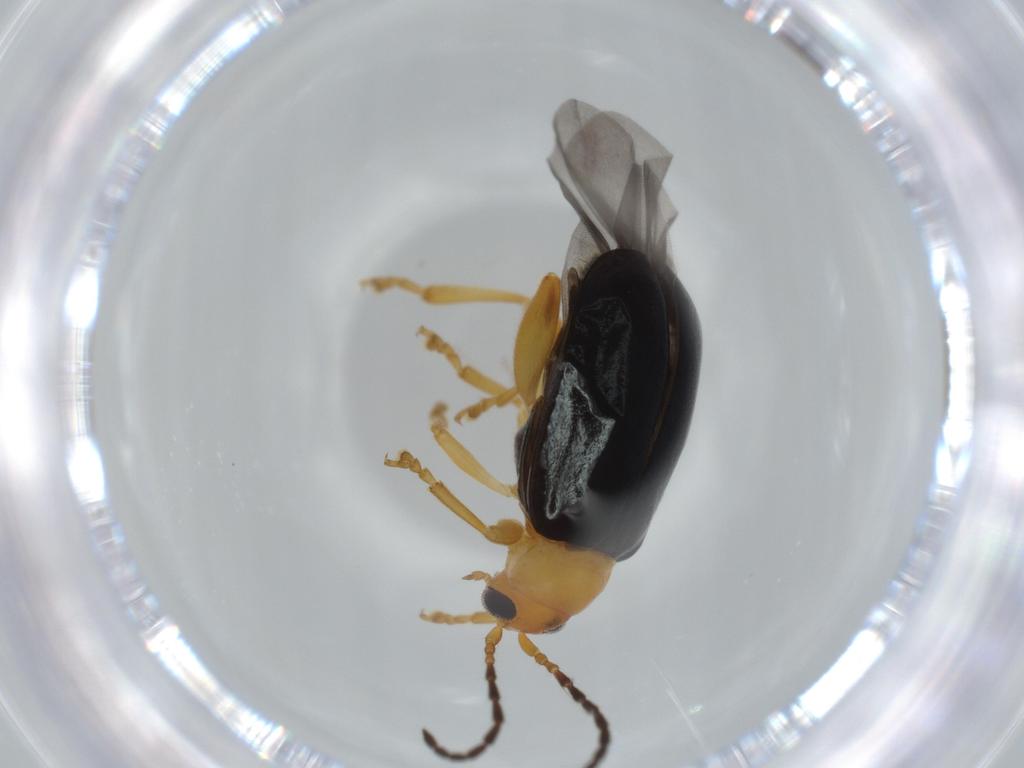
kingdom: Animalia
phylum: Arthropoda
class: Insecta
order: Coleoptera
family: Chrysomelidae
